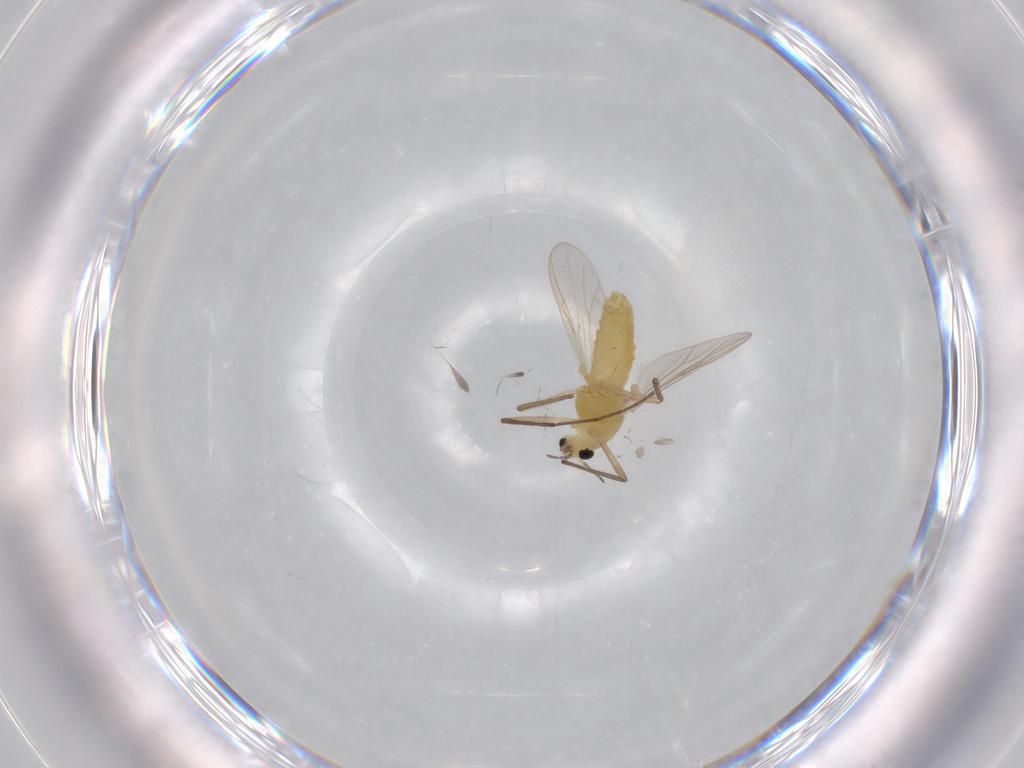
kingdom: Animalia
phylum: Arthropoda
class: Insecta
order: Diptera
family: Chironomidae
